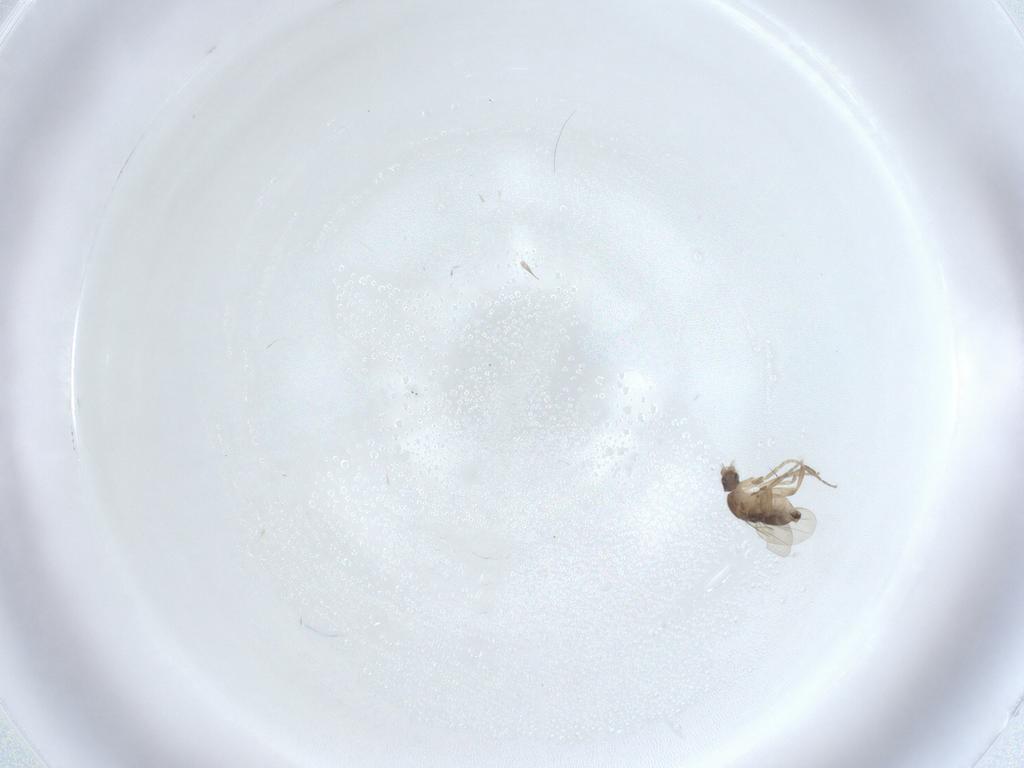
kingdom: Animalia
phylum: Arthropoda
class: Insecta
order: Diptera
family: Phoridae
